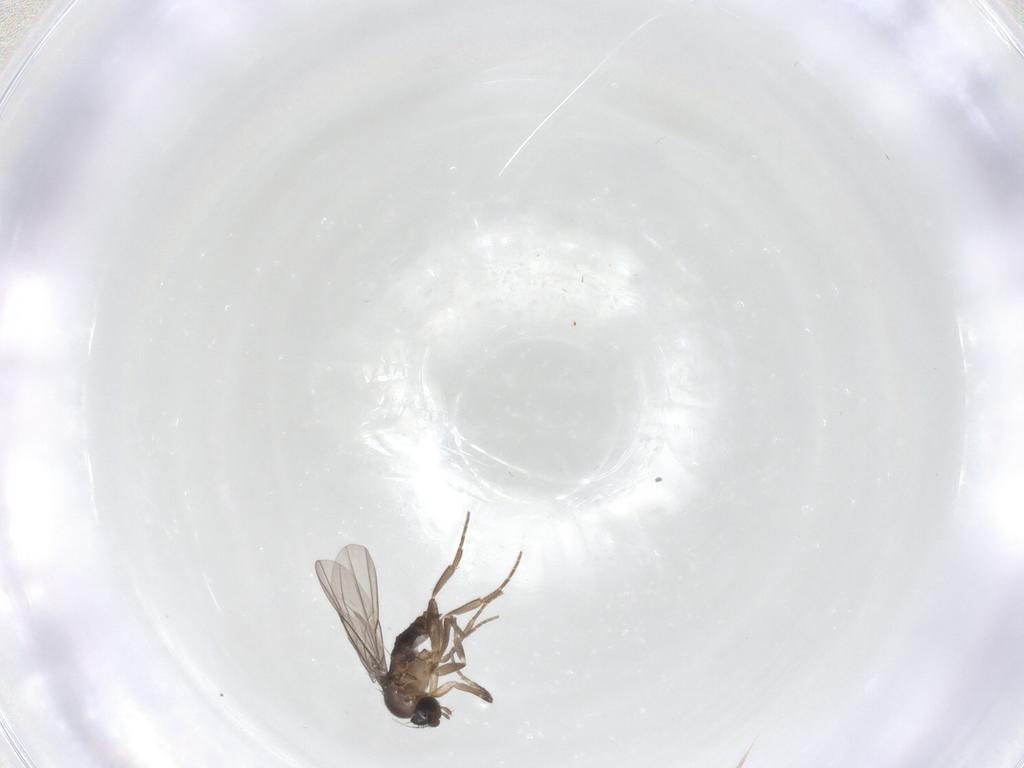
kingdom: Animalia
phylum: Arthropoda
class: Insecta
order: Diptera
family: Phoridae
